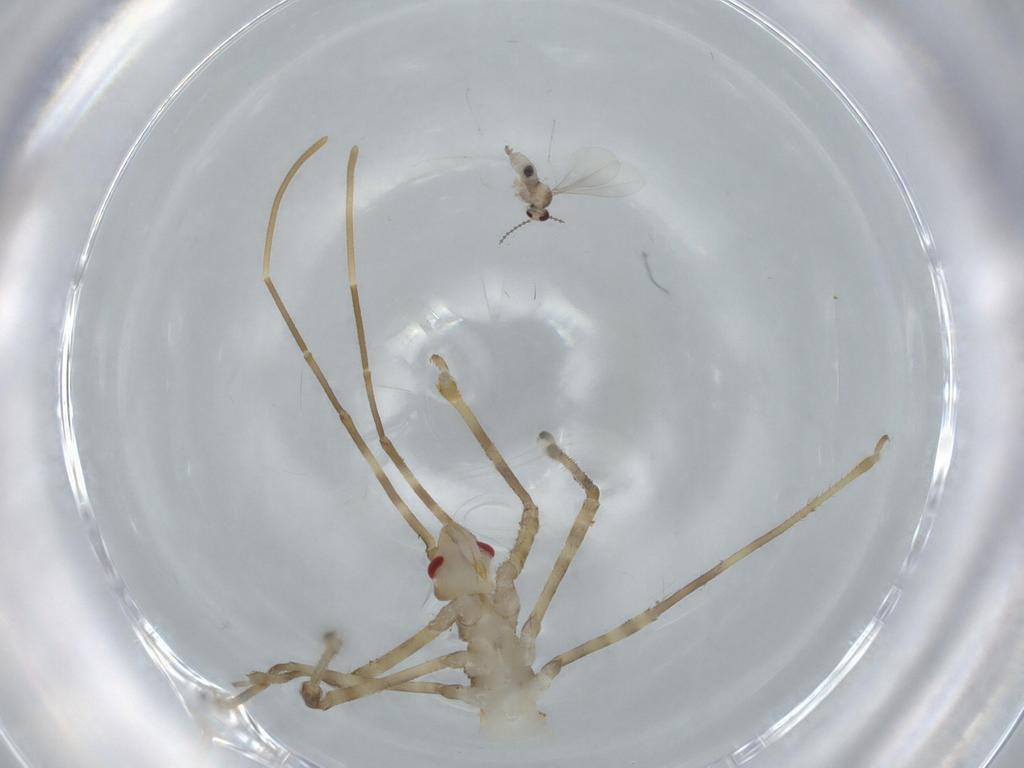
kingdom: Animalia
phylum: Arthropoda
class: Insecta
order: Hemiptera
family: Reduviidae
